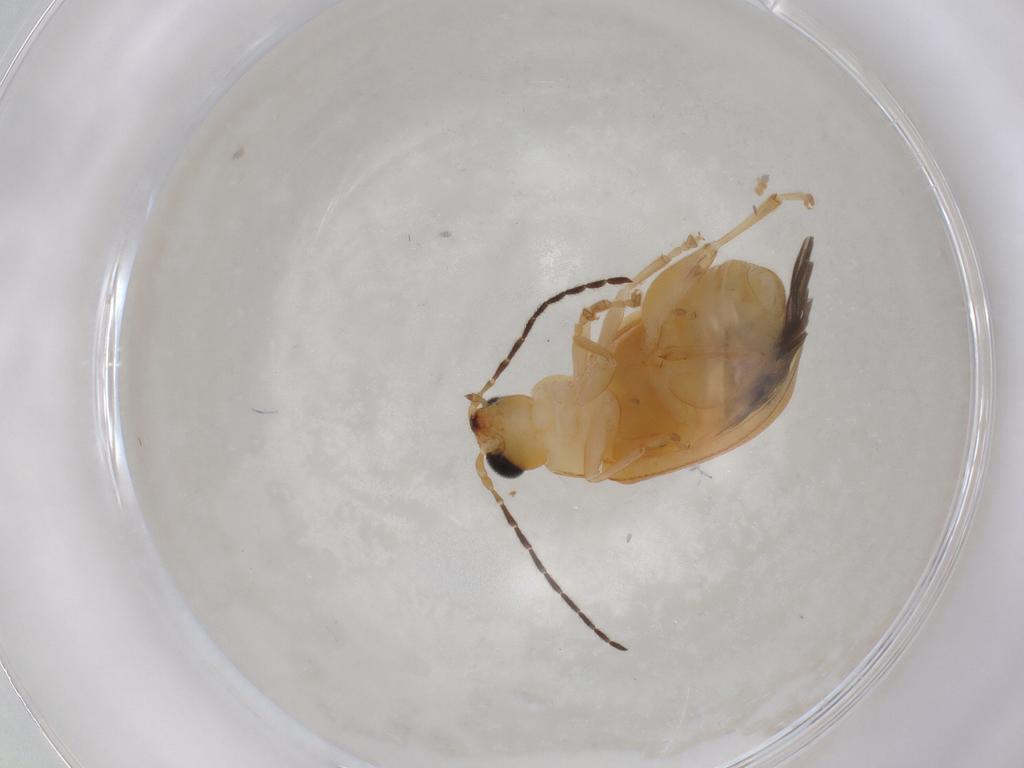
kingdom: Animalia
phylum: Arthropoda
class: Insecta
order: Coleoptera
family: Chrysomelidae
